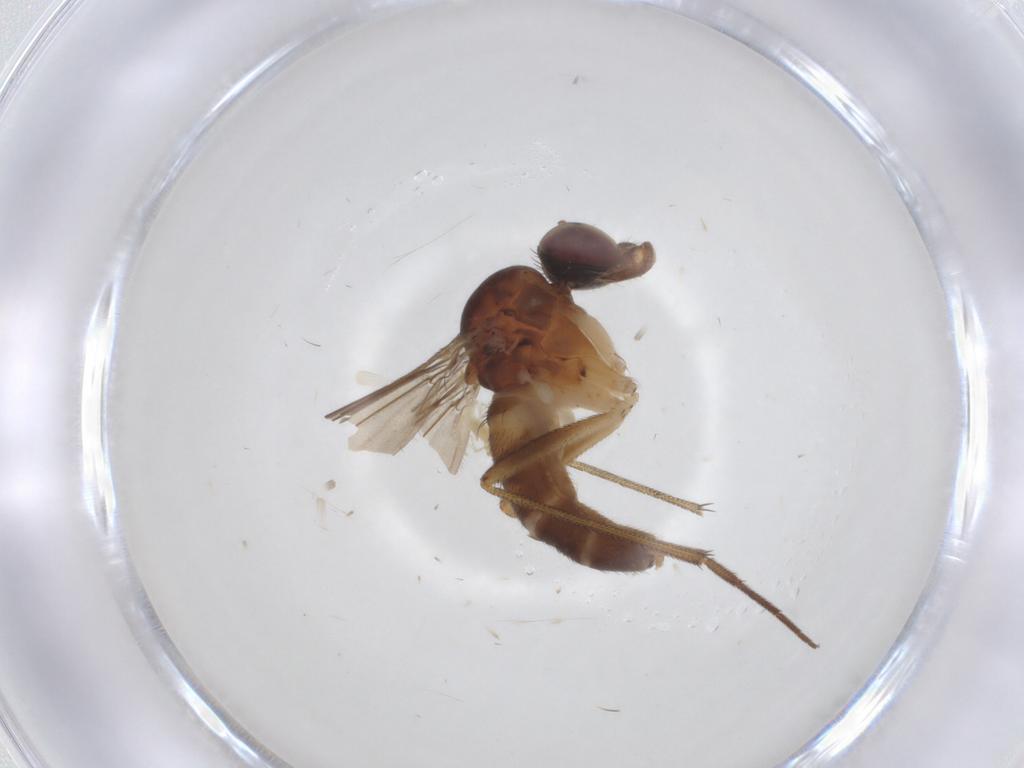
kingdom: Animalia
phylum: Arthropoda
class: Insecta
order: Diptera
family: Dolichopodidae
